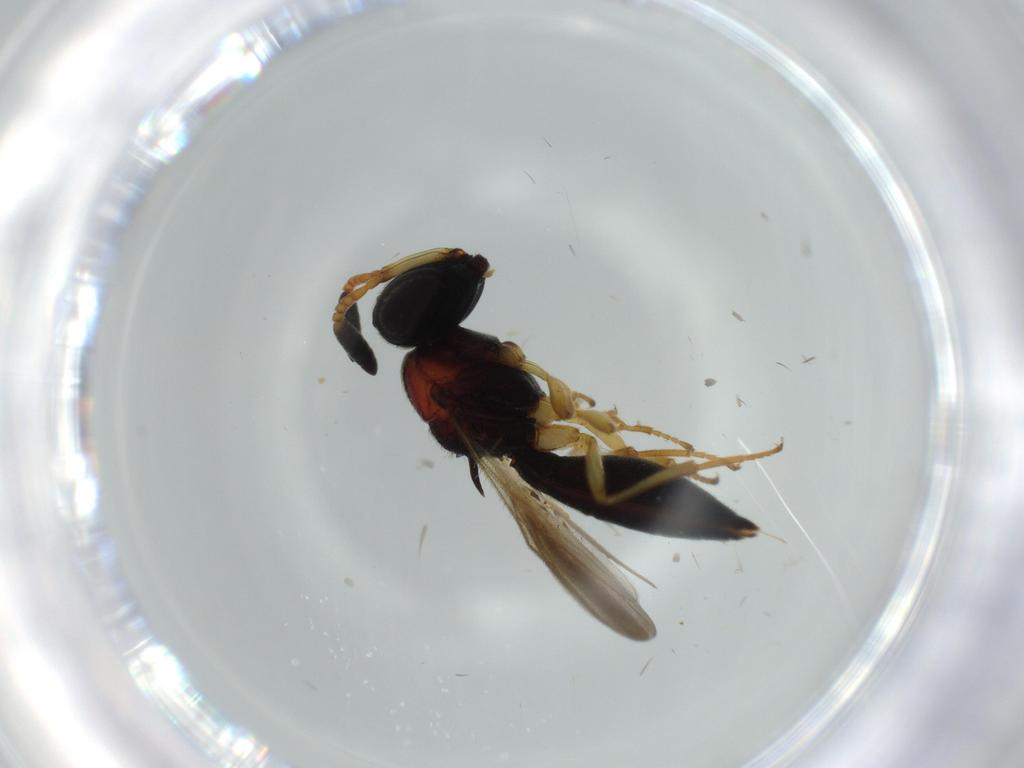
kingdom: Animalia
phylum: Arthropoda
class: Insecta
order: Hymenoptera
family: Formicidae
